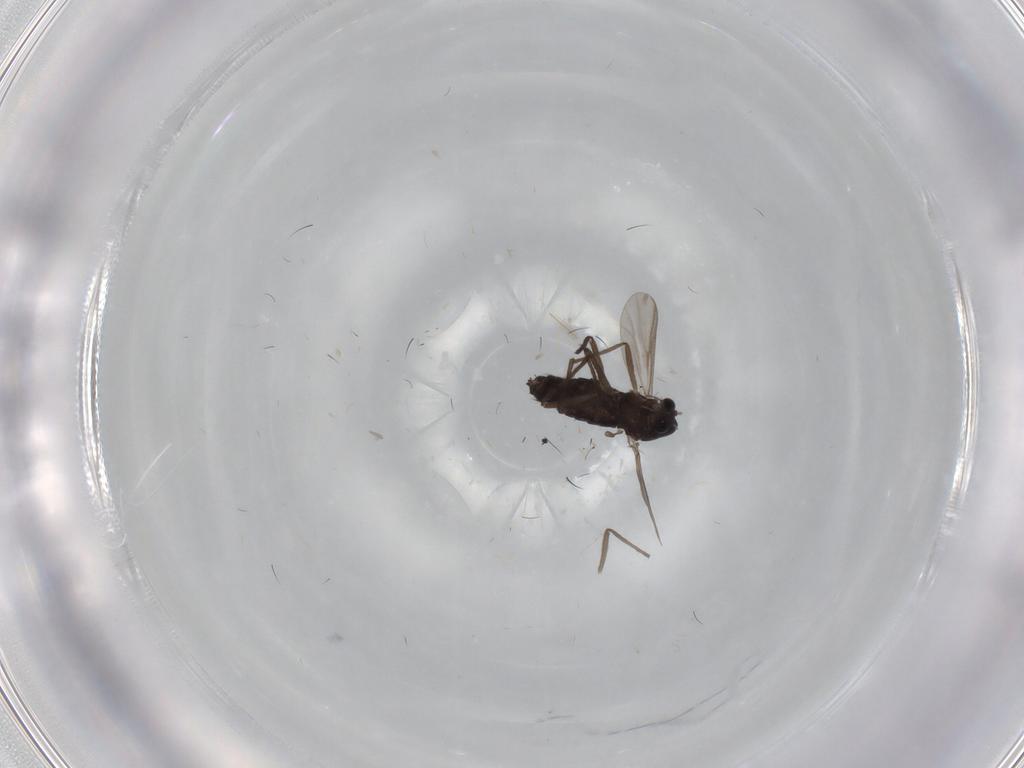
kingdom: Animalia
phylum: Arthropoda
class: Insecta
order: Diptera
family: Chironomidae
